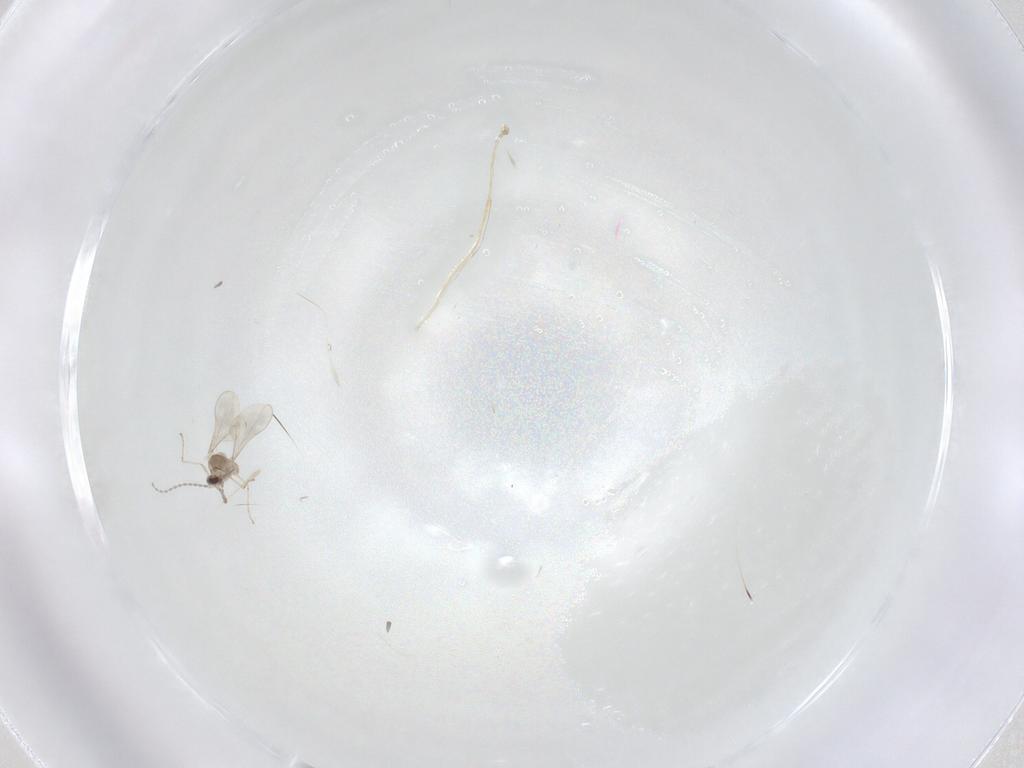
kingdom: Animalia
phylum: Arthropoda
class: Insecta
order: Diptera
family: Cecidomyiidae
